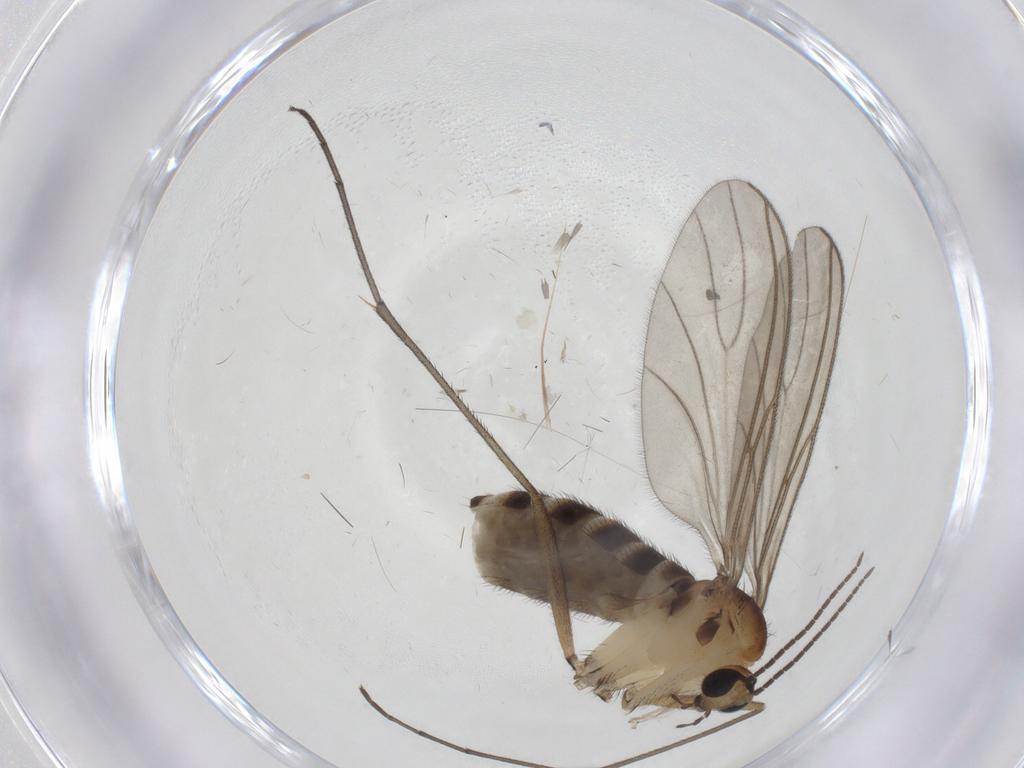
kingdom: Animalia
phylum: Arthropoda
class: Insecta
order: Diptera
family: Sciaridae
